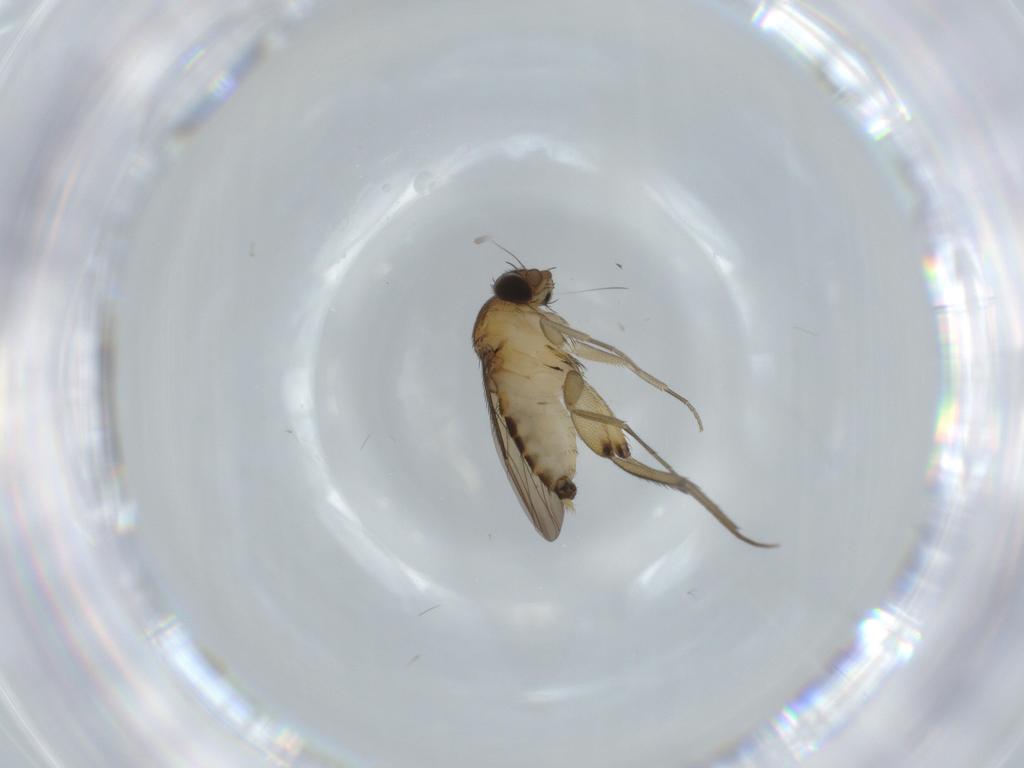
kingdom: Animalia
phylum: Arthropoda
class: Insecta
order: Diptera
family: Phoridae
